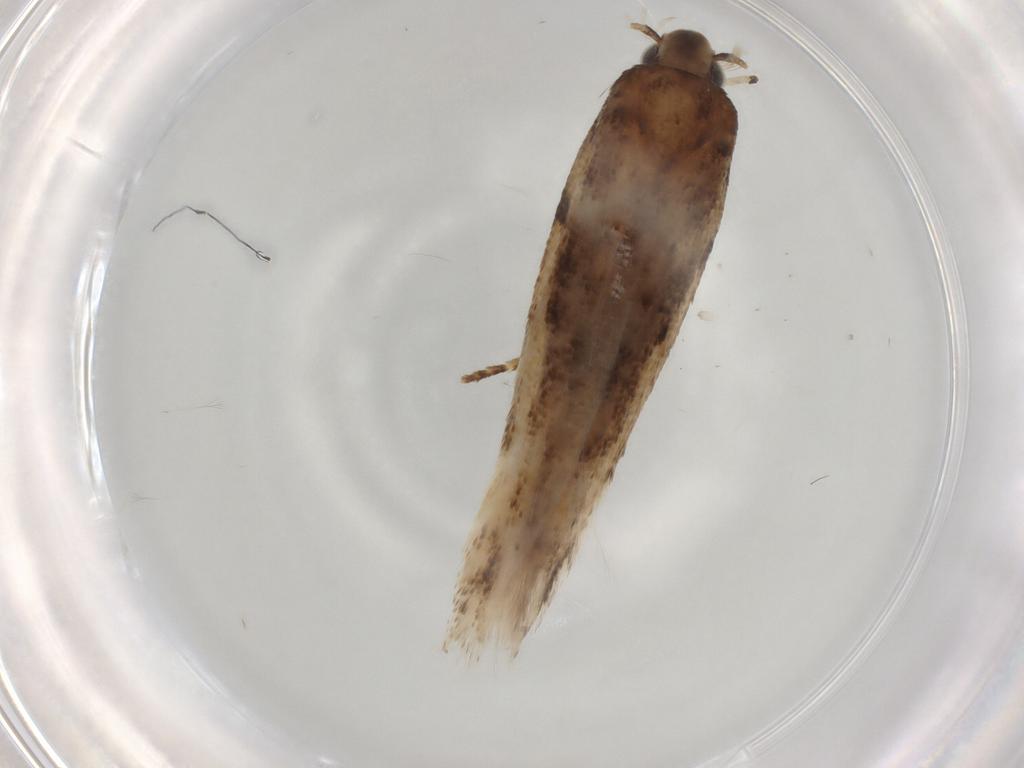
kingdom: Animalia
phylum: Arthropoda
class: Insecta
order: Lepidoptera
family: Gelechiidae
